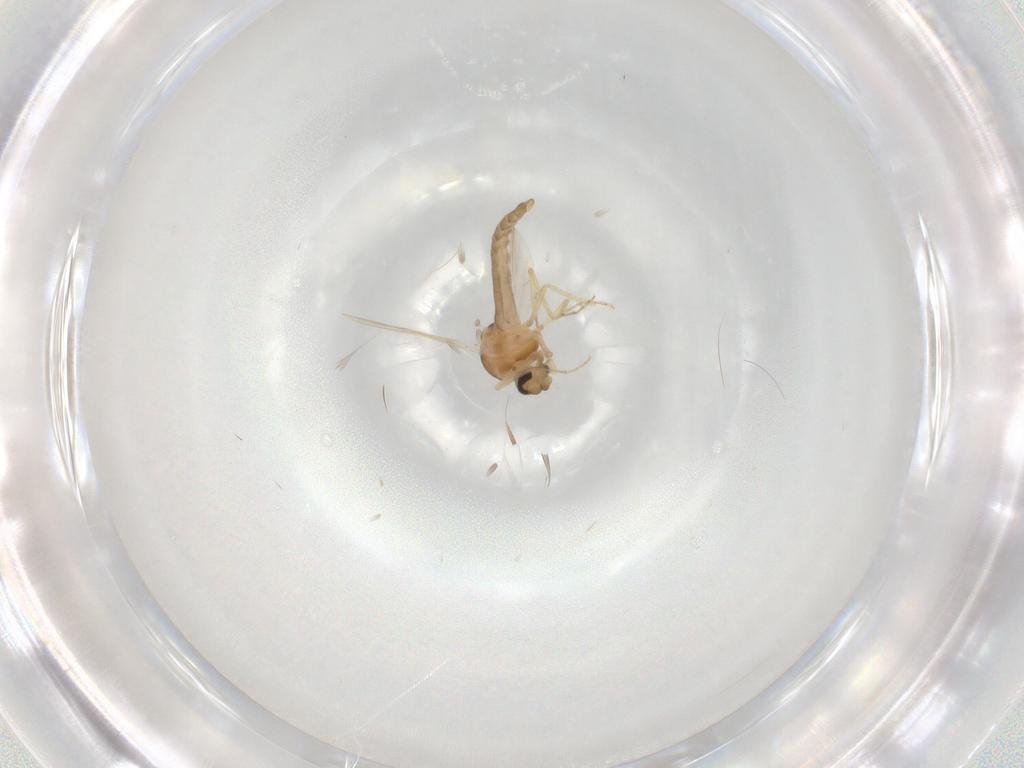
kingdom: Animalia
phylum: Arthropoda
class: Insecta
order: Diptera
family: Ceratopogonidae
